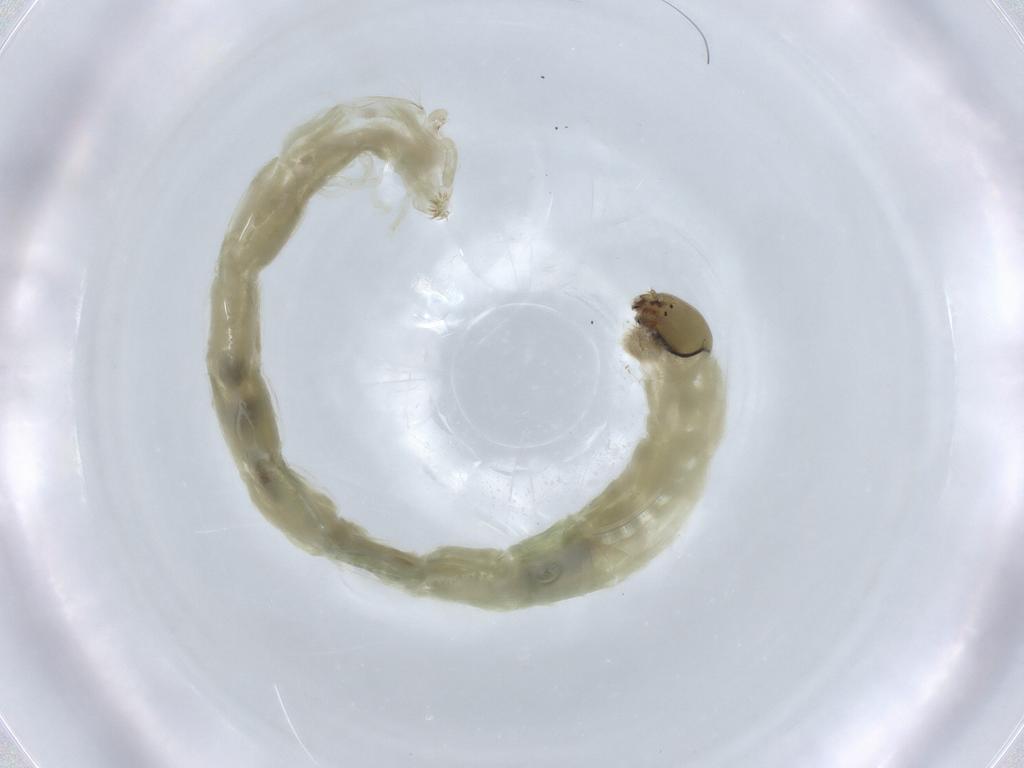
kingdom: Animalia
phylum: Arthropoda
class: Insecta
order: Diptera
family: Chironomidae
